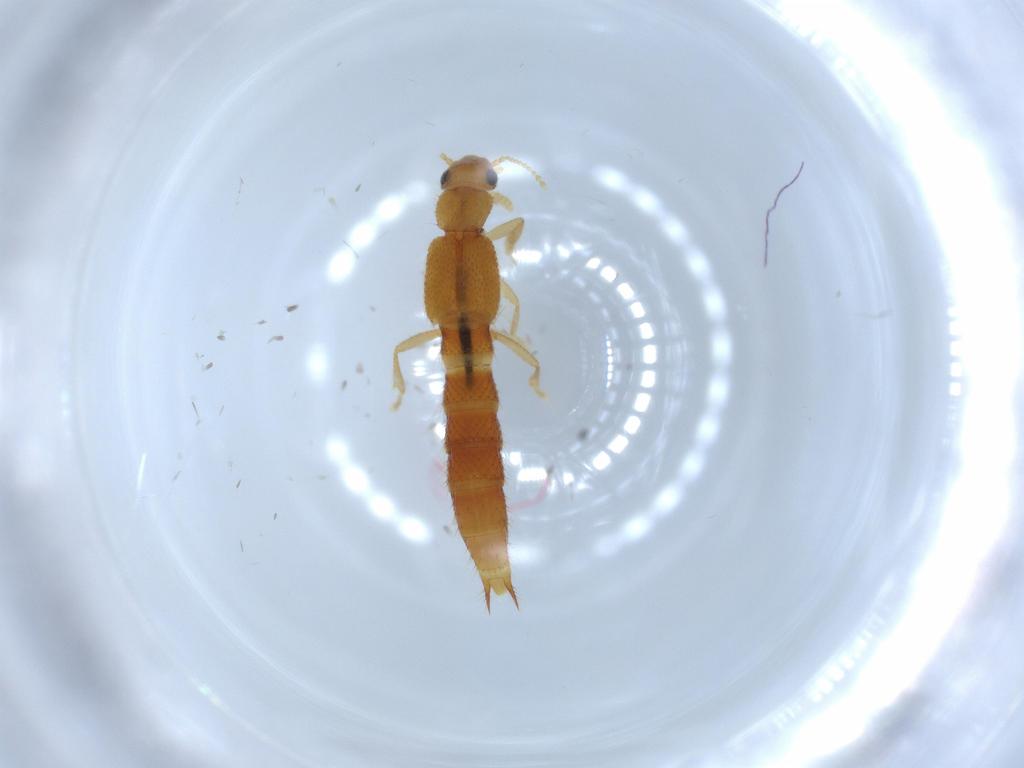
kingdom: Animalia
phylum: Arthropoda
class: Insecta
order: Coleoptera
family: Staphylinidae
